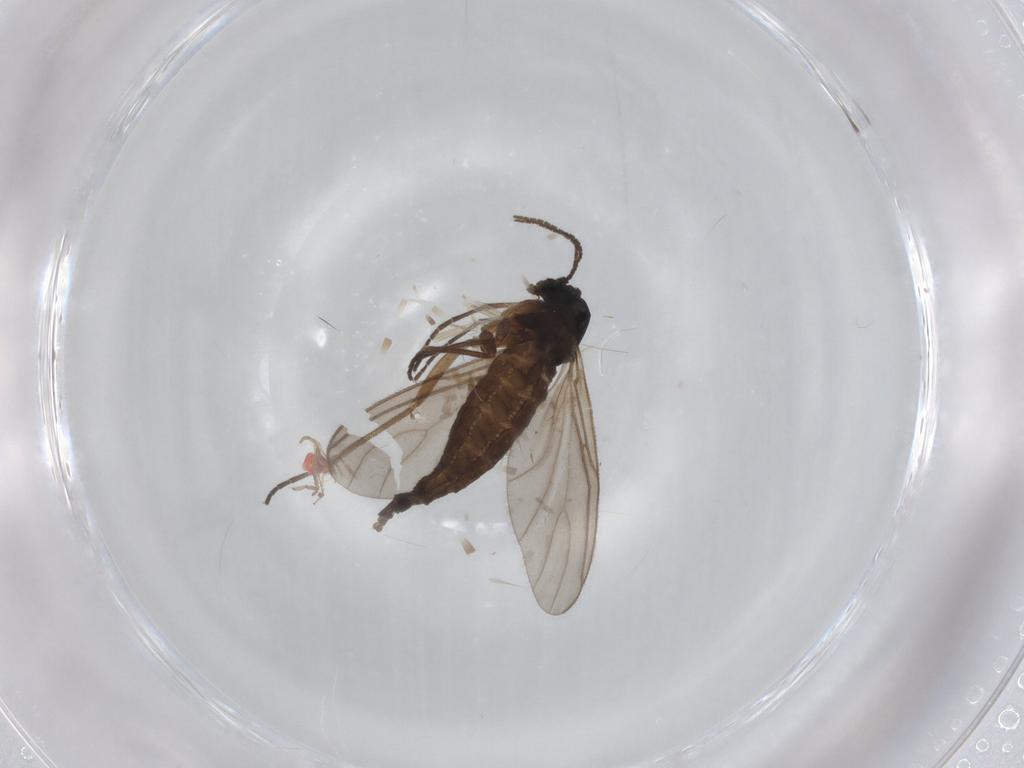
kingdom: Animalia
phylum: Arthropoda
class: Insecta
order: Diptera
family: Sciaridae
